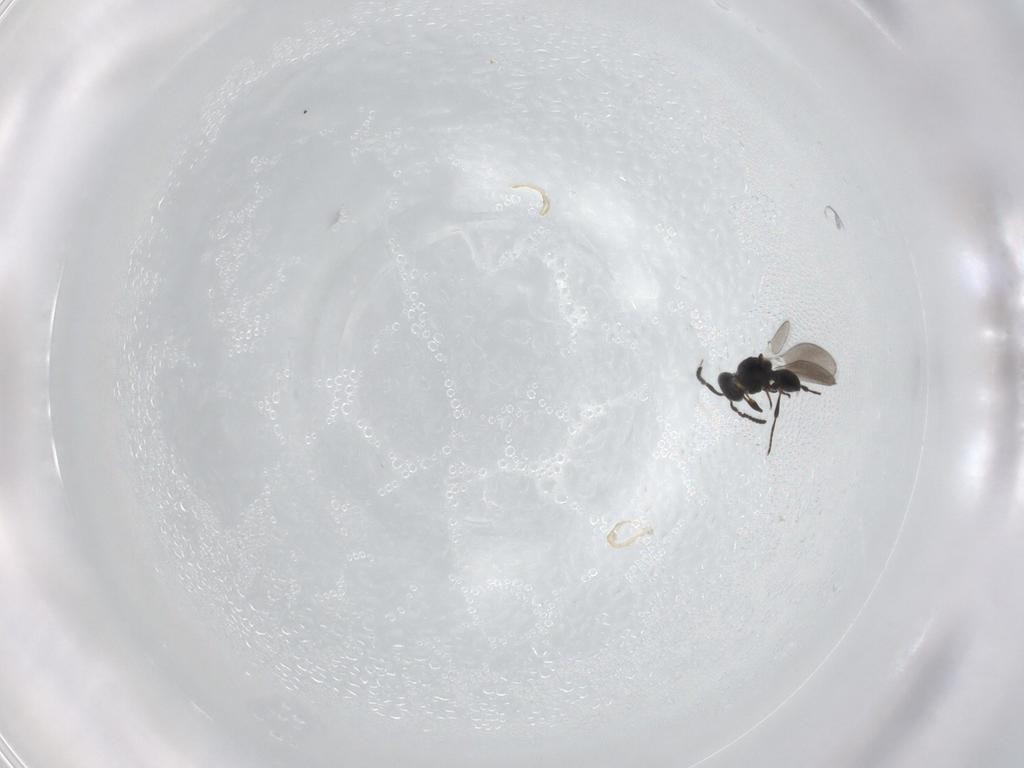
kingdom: Animalia
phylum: Arthropoda
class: Insecta
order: Hymenoptera
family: Platygastridae
